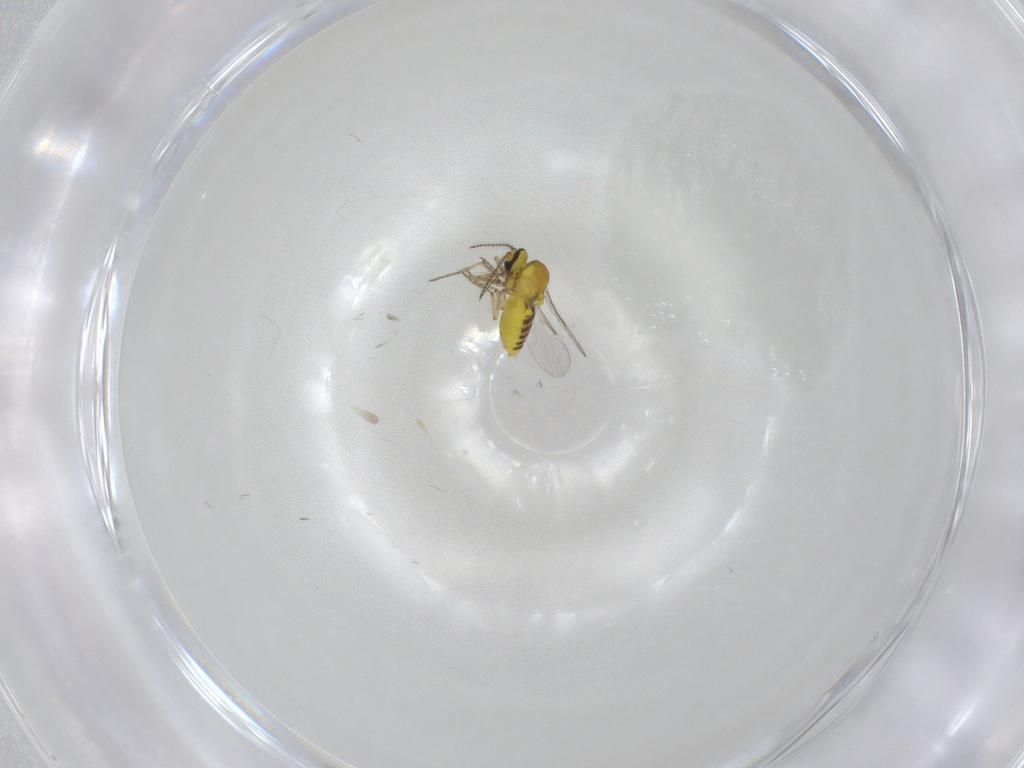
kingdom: Animalia
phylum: Arthropoda
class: Insecta
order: Diptera
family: Ceratopogonidae
